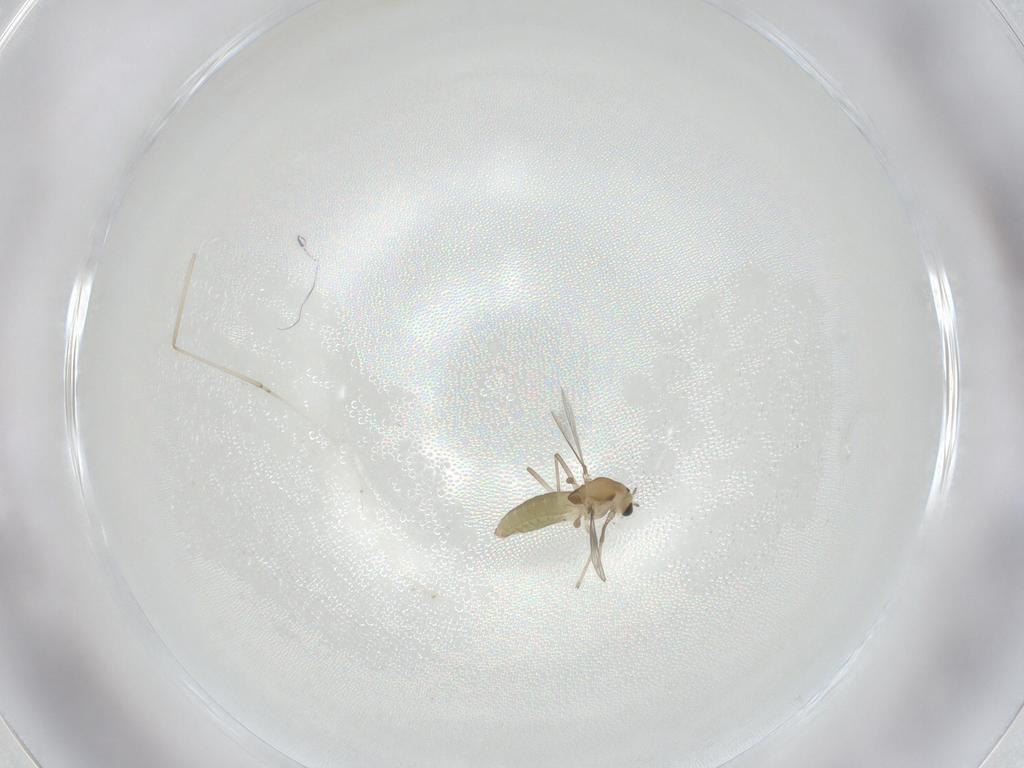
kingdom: Animalia
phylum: Arthropoda
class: Insecta
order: Diptera
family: Chironomidae
